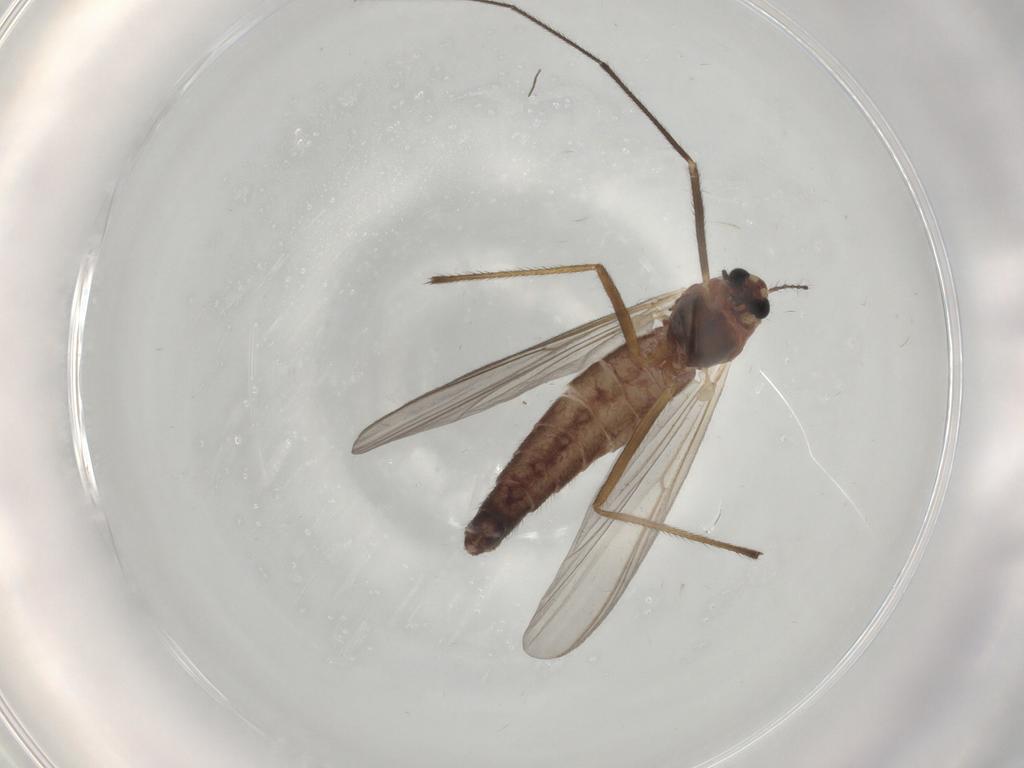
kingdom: Animalia
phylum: Arthropoda
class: Insecta
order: Diptera
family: Chironomidae
